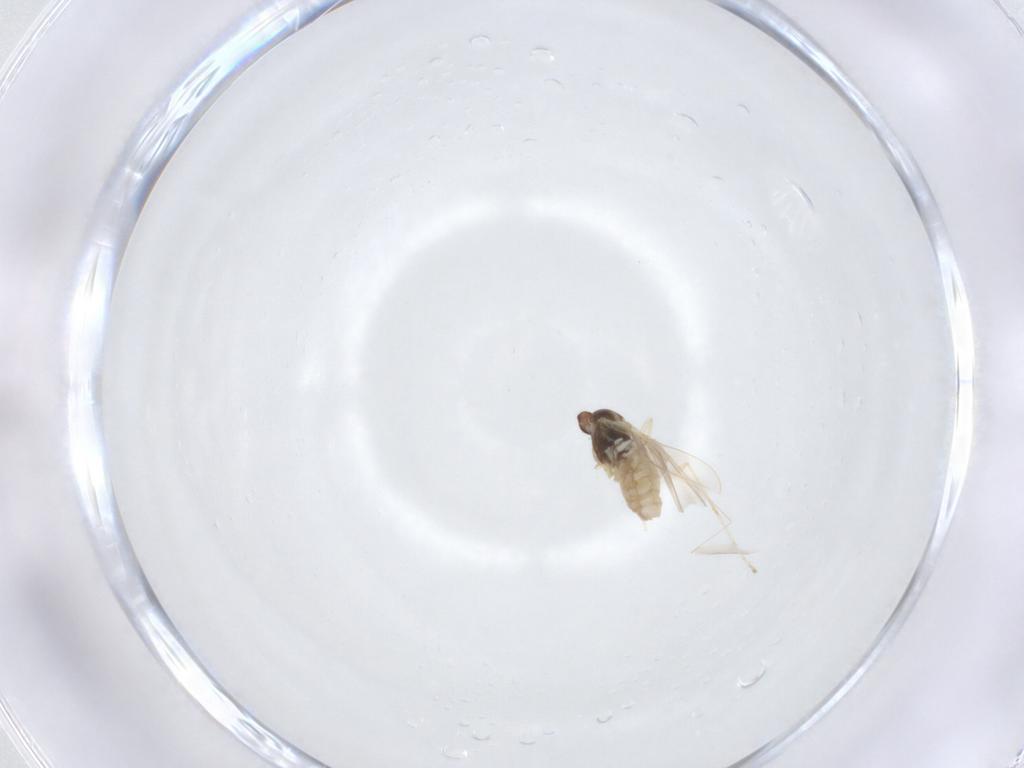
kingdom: Animalia
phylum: Arthropoda
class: Insecta
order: Diptera
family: Cecidomyiidae
